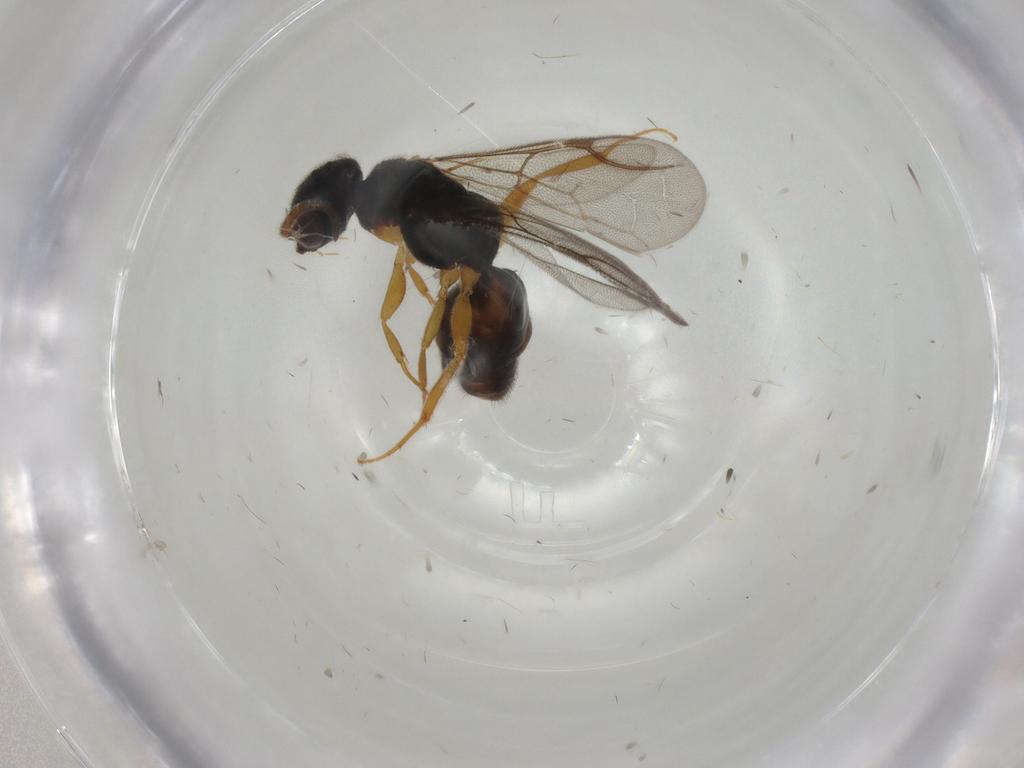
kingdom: Animalia
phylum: Arthropoda
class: Insecta
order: Hymenoptera
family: Bethylidae
